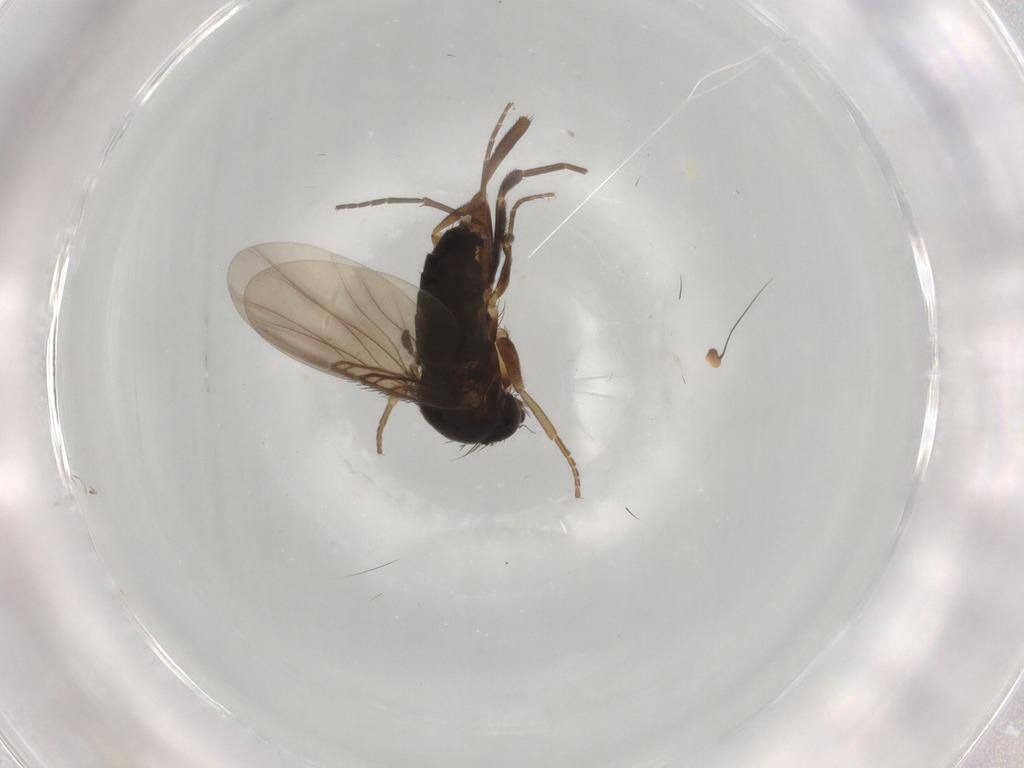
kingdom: Animalia
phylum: Arthropoda
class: Insecta
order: Diptera
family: Phoridae
